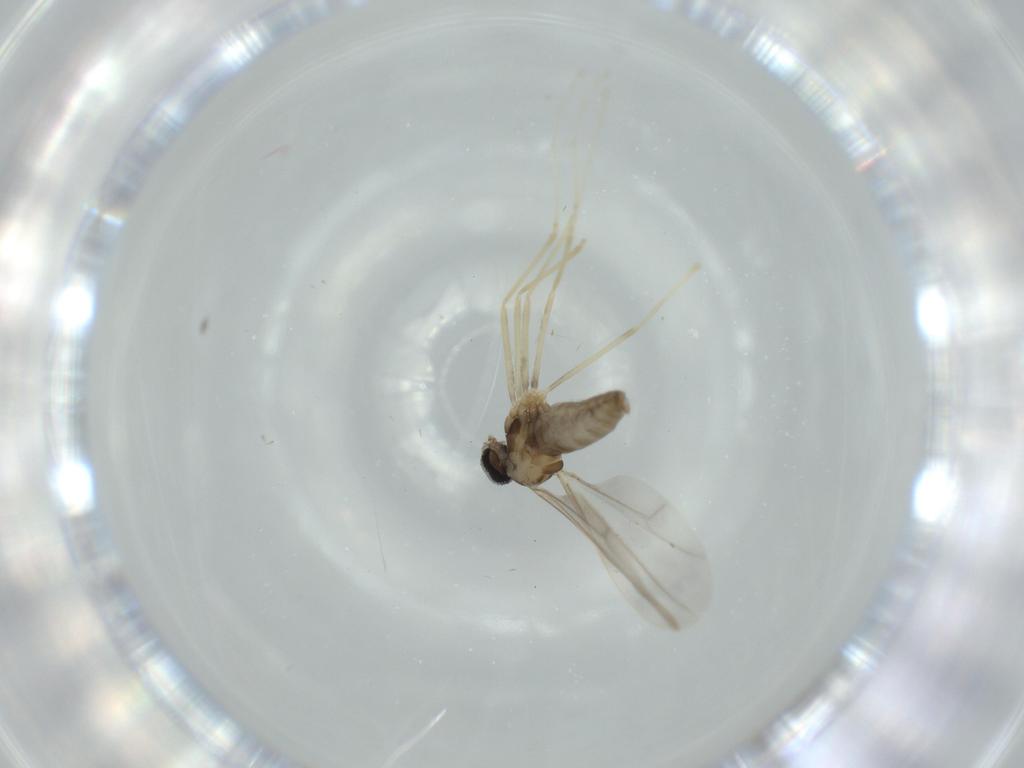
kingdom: Animalia
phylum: Arthropoda
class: Insecta
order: Diptera
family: Cecidomyiidae
